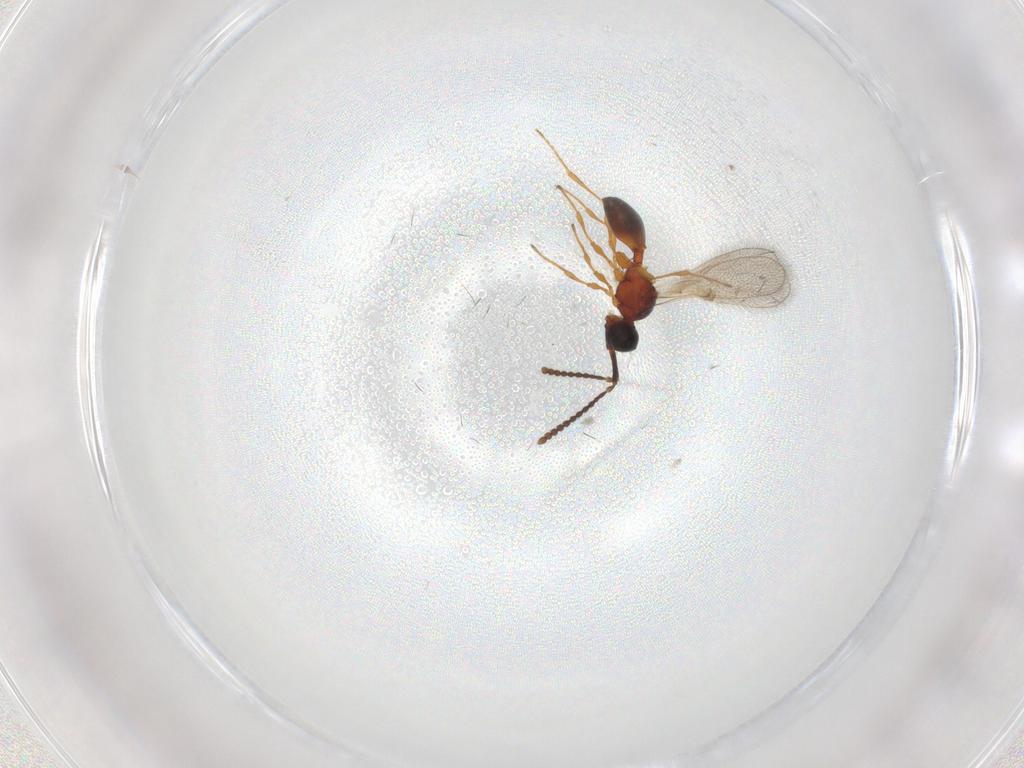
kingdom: Animalia
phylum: Arthropoda
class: Insecta
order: Hymenoptera
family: Diapriidae
